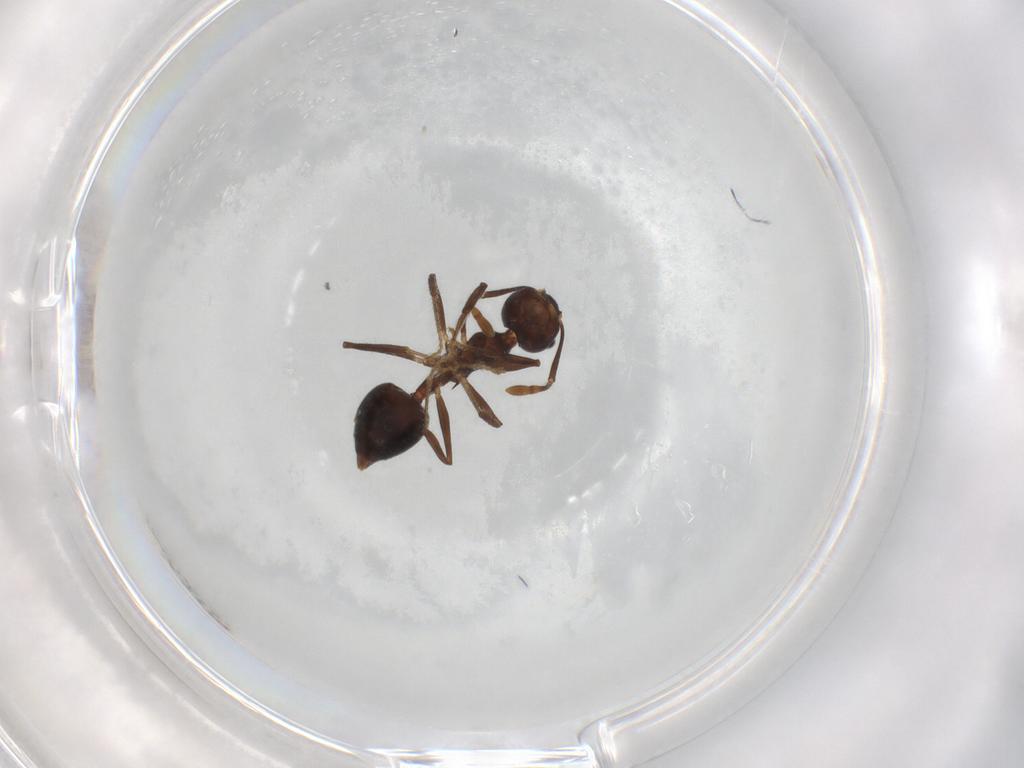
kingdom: Animalia
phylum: Arthropoda
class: Insecta
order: Hymenoptera
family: Formicidae
